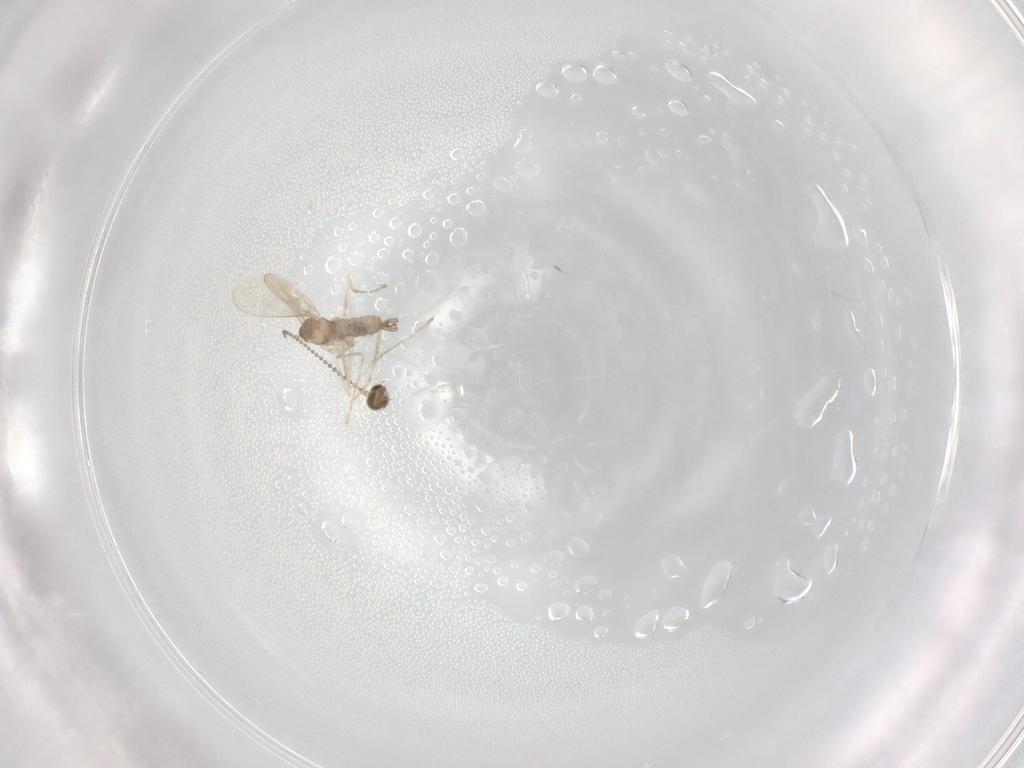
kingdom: Animalia
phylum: Arthropoda
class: Insecta
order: Diptera
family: Cecidomyiidae
